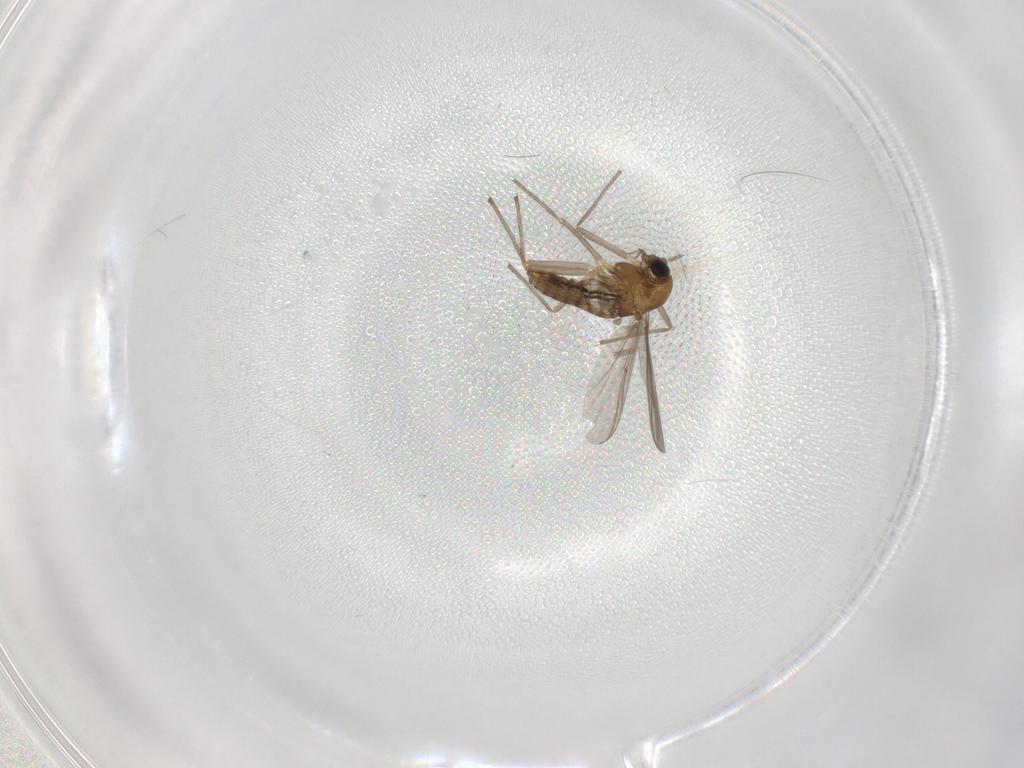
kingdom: Animalia
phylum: Arthropoda
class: Insecta
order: Diptera
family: Chironomidae
